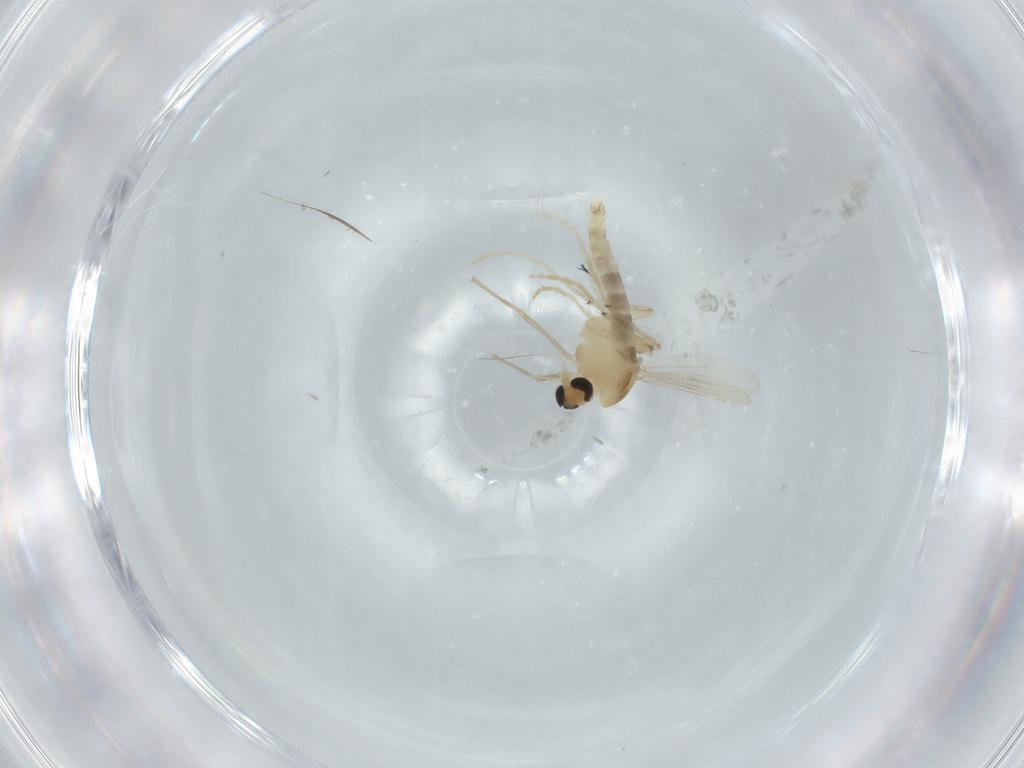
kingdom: Animalia
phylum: Arthropoda
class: Insecta
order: Diptera
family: Chironomidae
